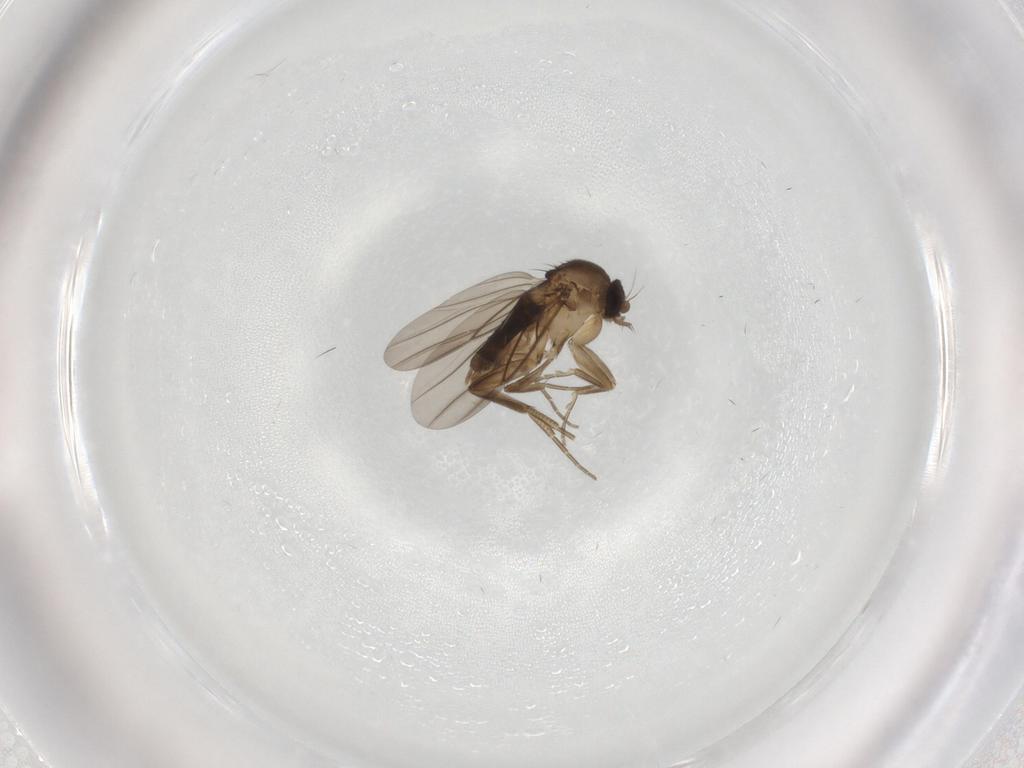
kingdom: Animalia
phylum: Arthropoda
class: Insecta
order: Diptera
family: Phoridae
